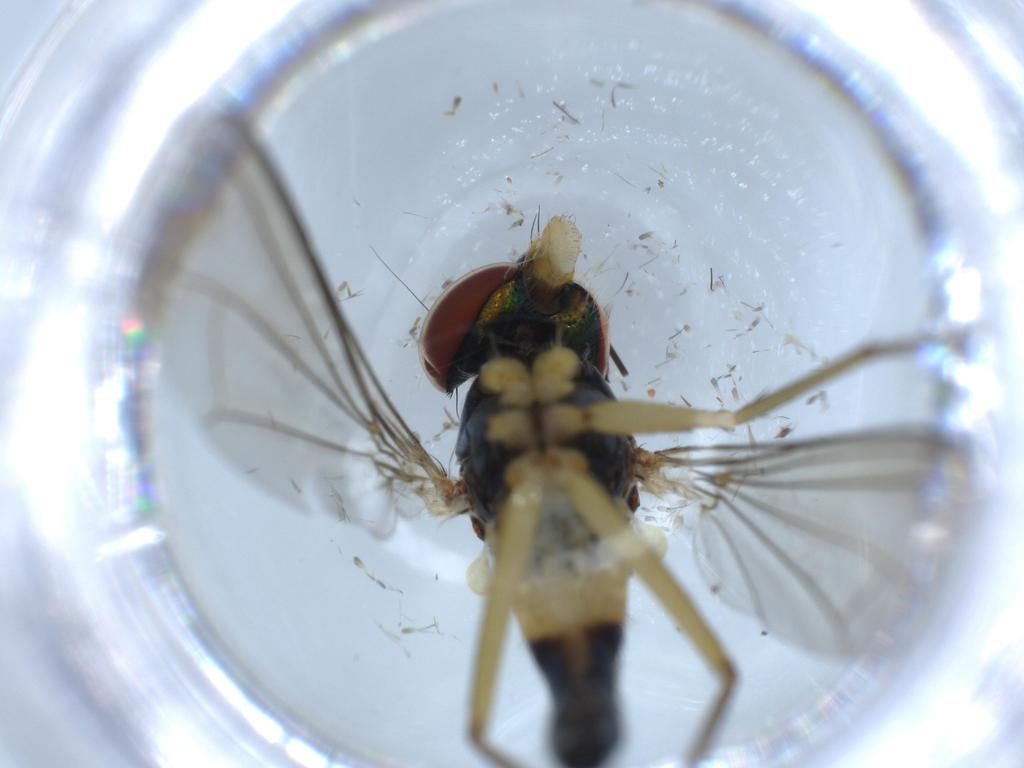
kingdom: Animalia
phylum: Arthropoda
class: Insecta
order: Diptera
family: Dolichopodidae
